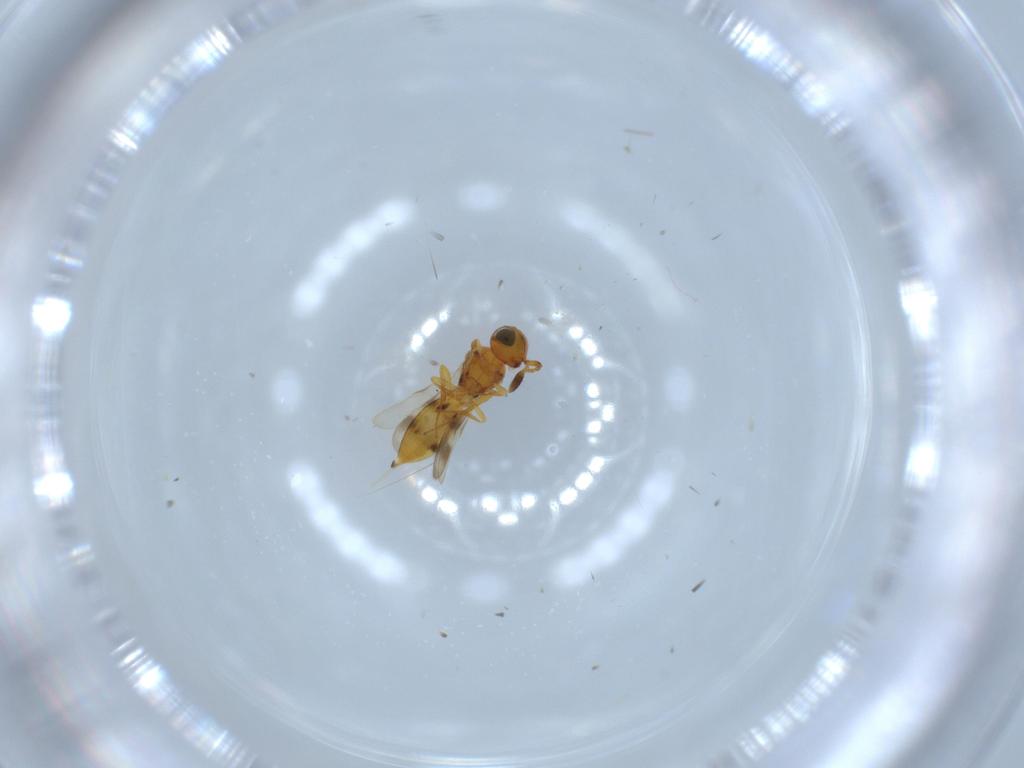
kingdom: Animalia
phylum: Arthropoda
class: Insecta
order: Hymenoptera
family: Scelionidae
